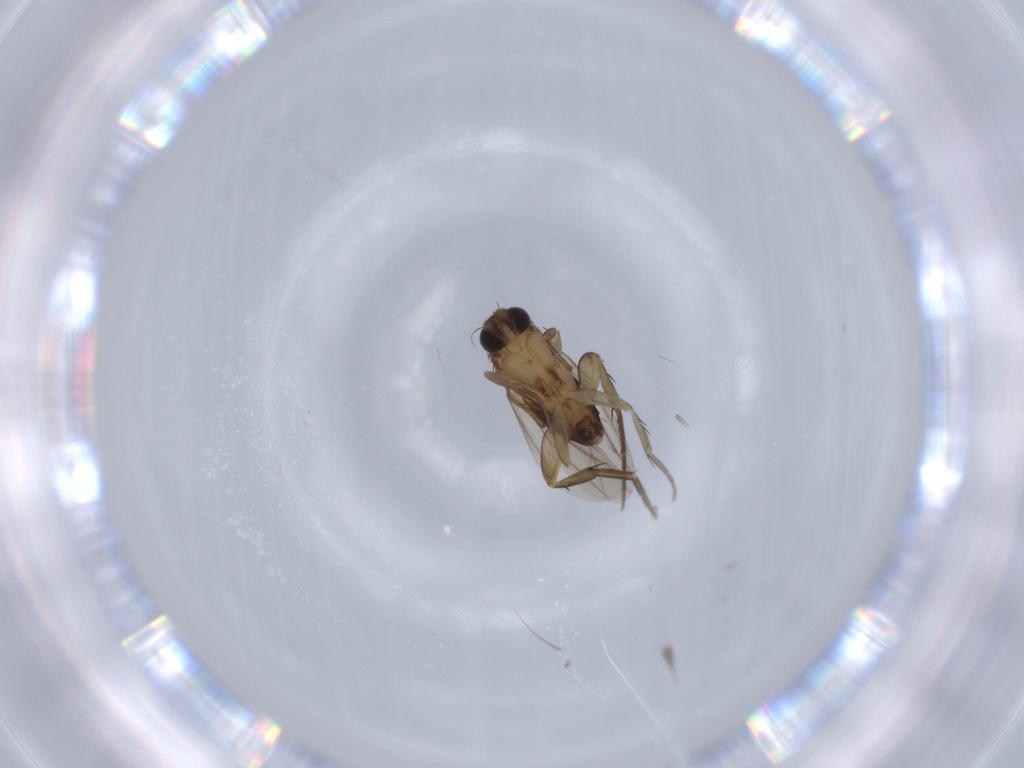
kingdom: Animalia
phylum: Arthropoda
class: Insecta
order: Diptera
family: Phoridae
